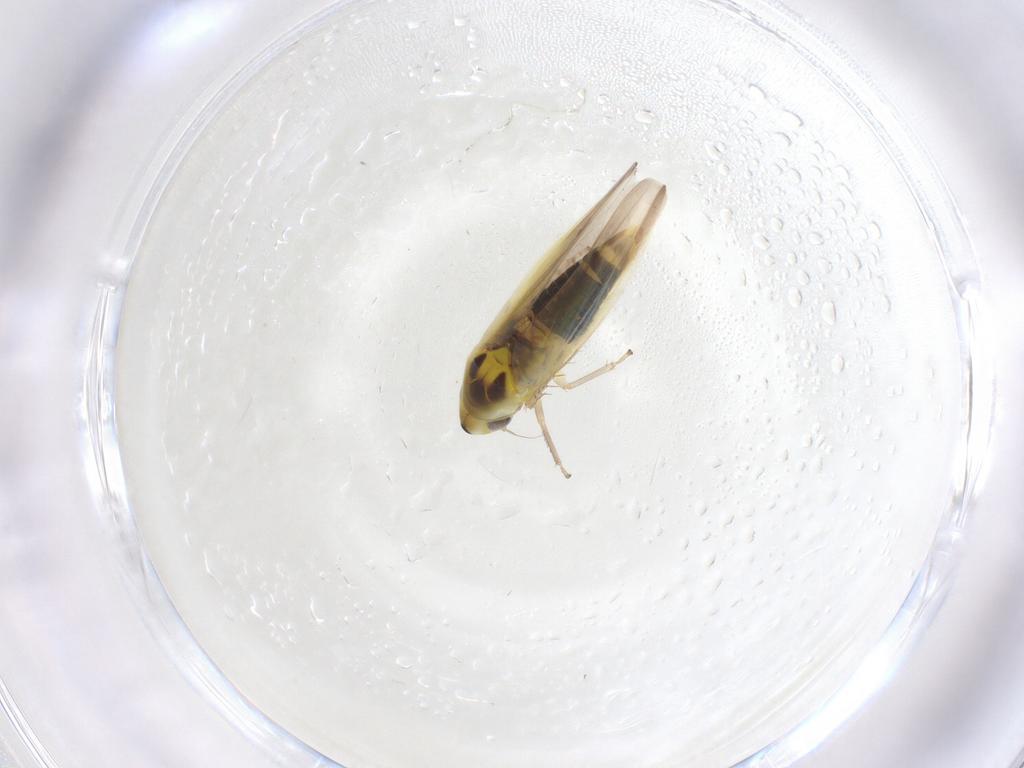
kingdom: Animalia
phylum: Arthropoda
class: Insecta
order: Hemiptera
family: Cicadellidae
